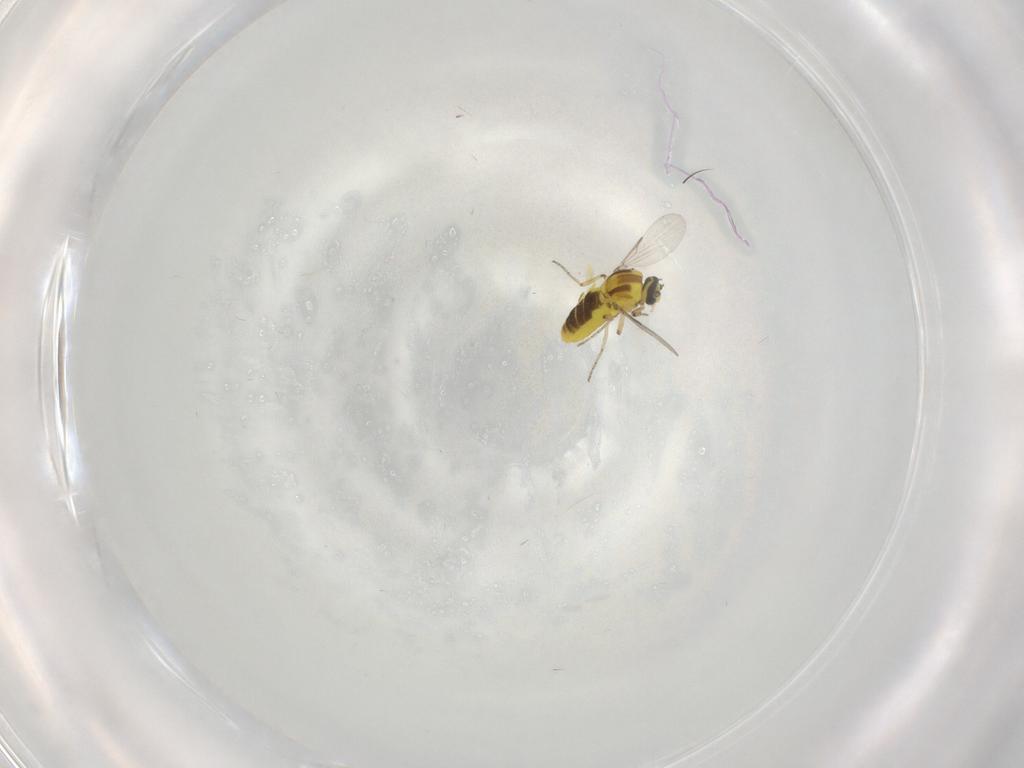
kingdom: Animalia
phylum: Arthropoda
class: Insecta
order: Diptera
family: Ceratopogonidae
